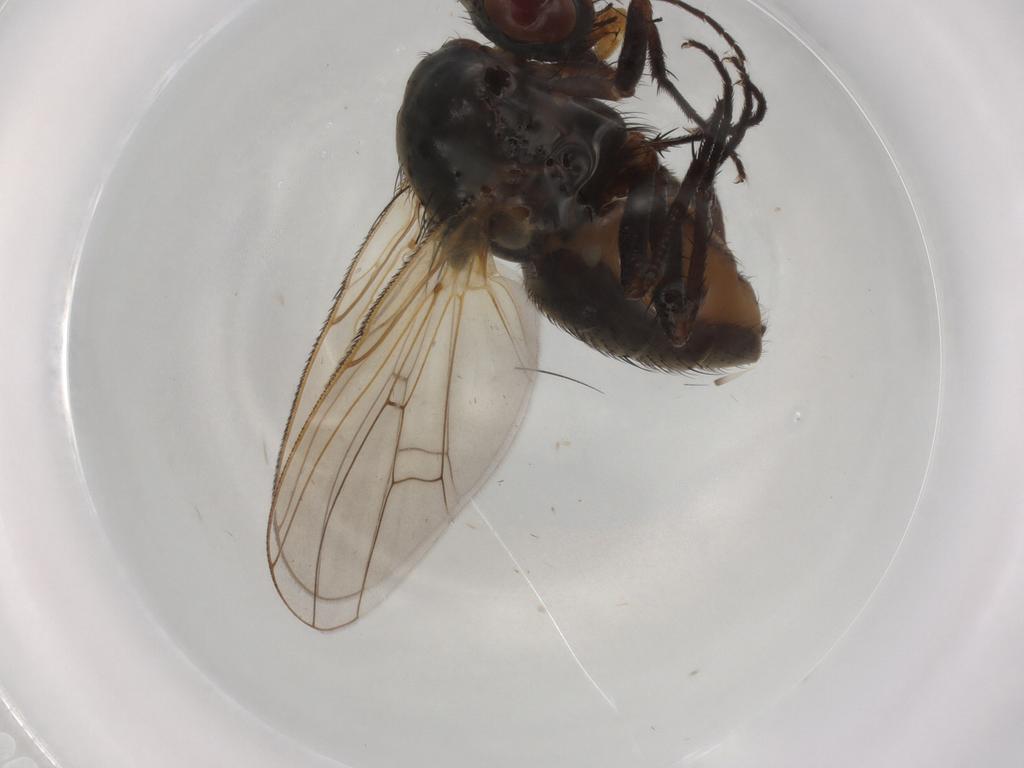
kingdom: Animalia
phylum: Arthropoda
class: Insecta
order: Diptera
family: Anthomyiidae
